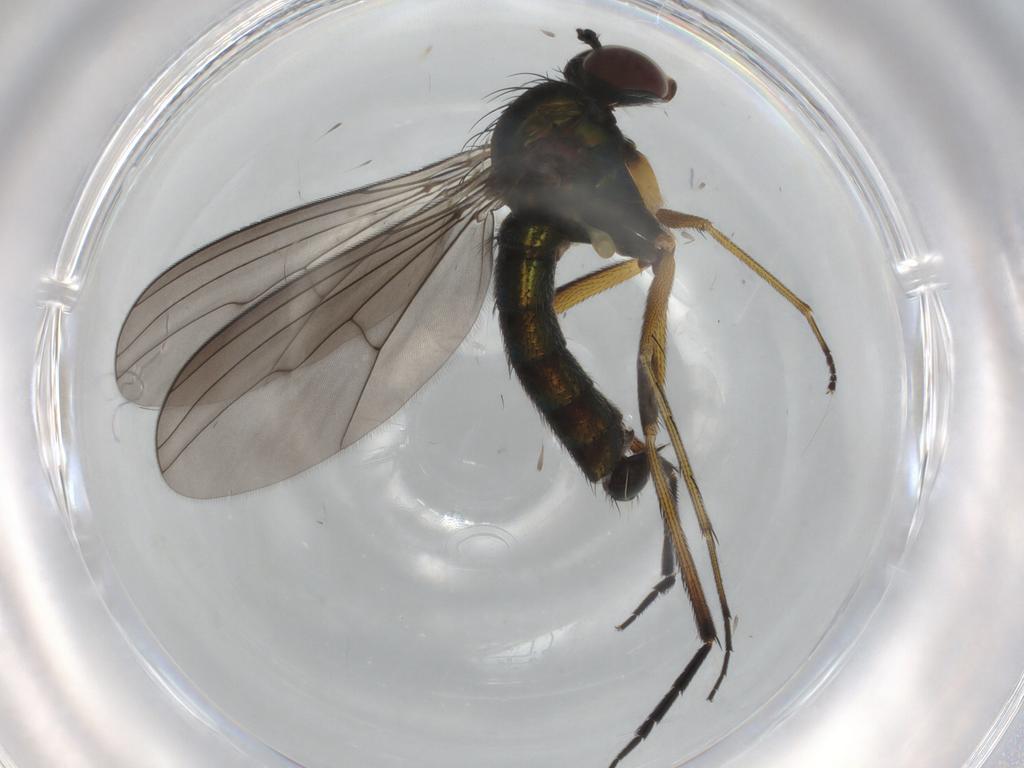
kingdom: Animalia
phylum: Arthropoda
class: Insecta
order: Diptera
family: Dolichopodidae
